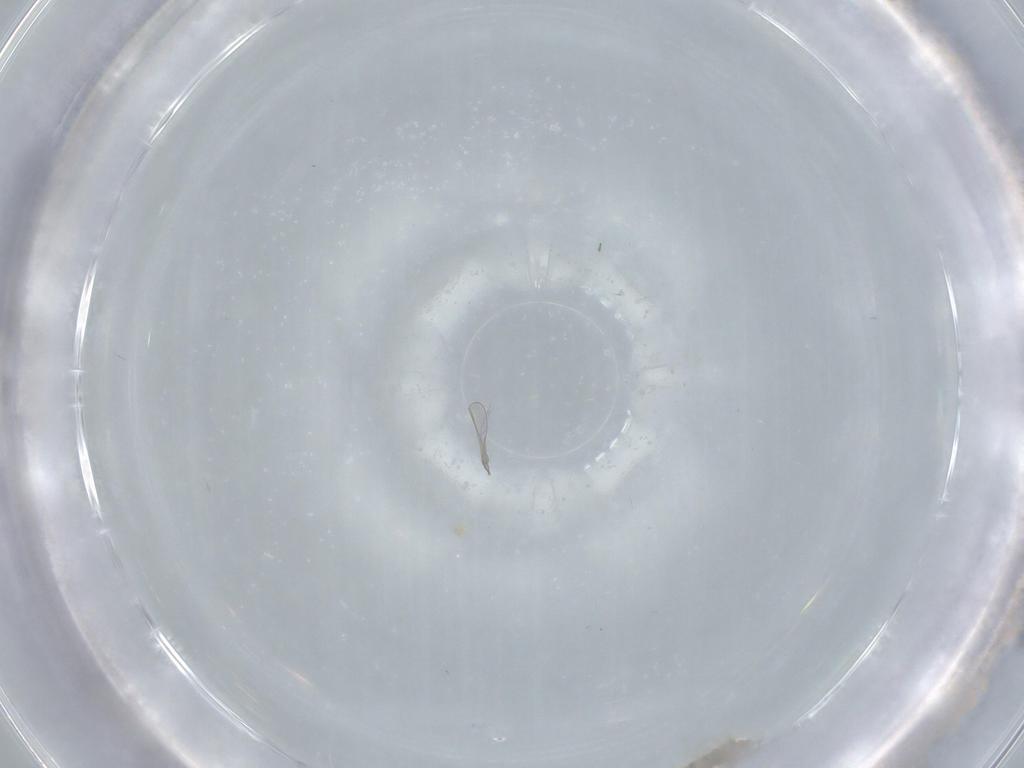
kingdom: Animalia
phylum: Arthropoda
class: Insecta
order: Diptera
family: Cecidomyiidae
